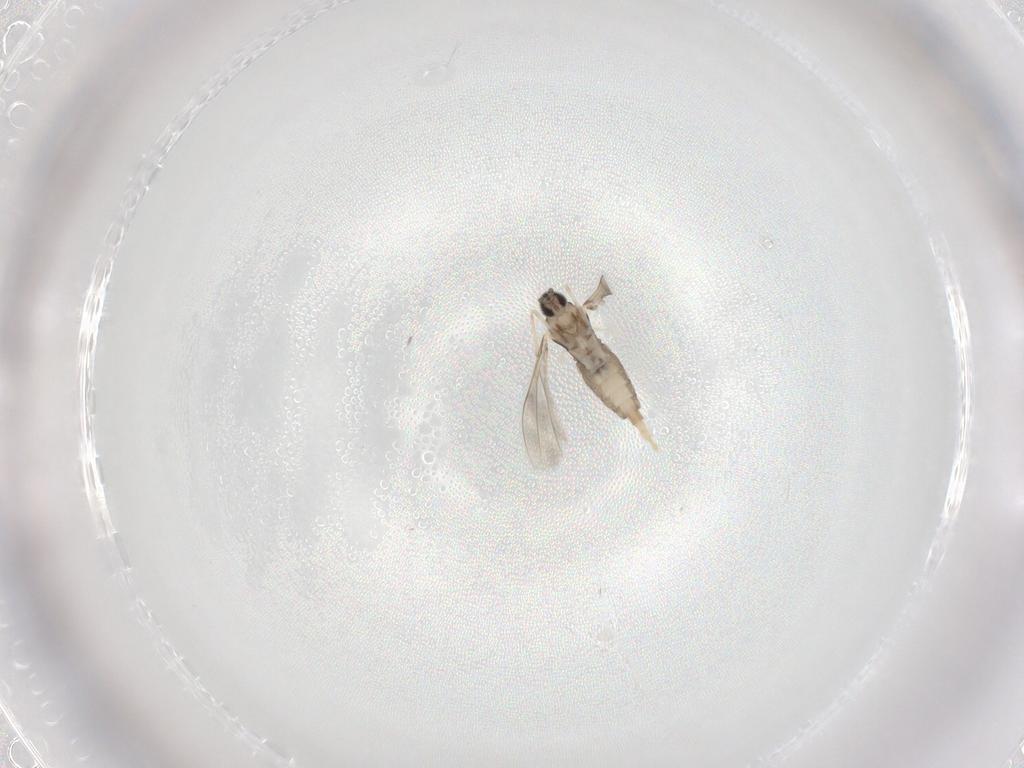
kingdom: Animalia
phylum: Arthropoda
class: Insecta
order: Diptera
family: Cecidomyiidae
